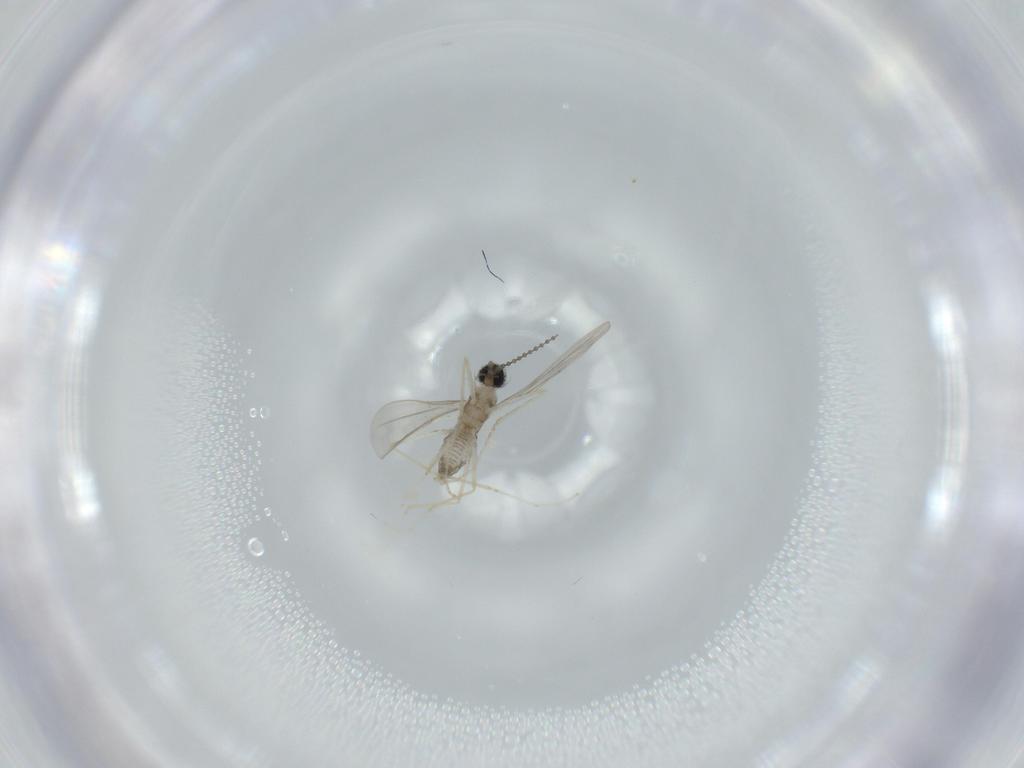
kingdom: Animalia
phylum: Arthropoda
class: Insecta
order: Diptera
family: Cecidomyiidae
